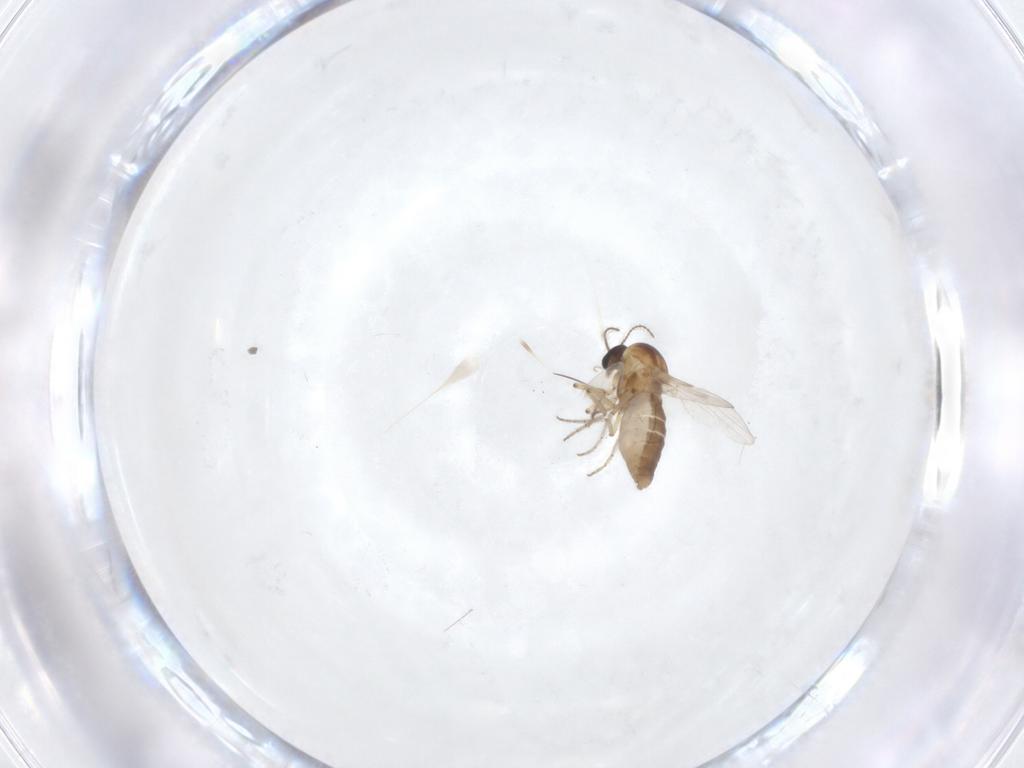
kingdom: Animalia
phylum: Arthropoda
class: Insecta
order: Diptera
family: Ceratopogonidae
